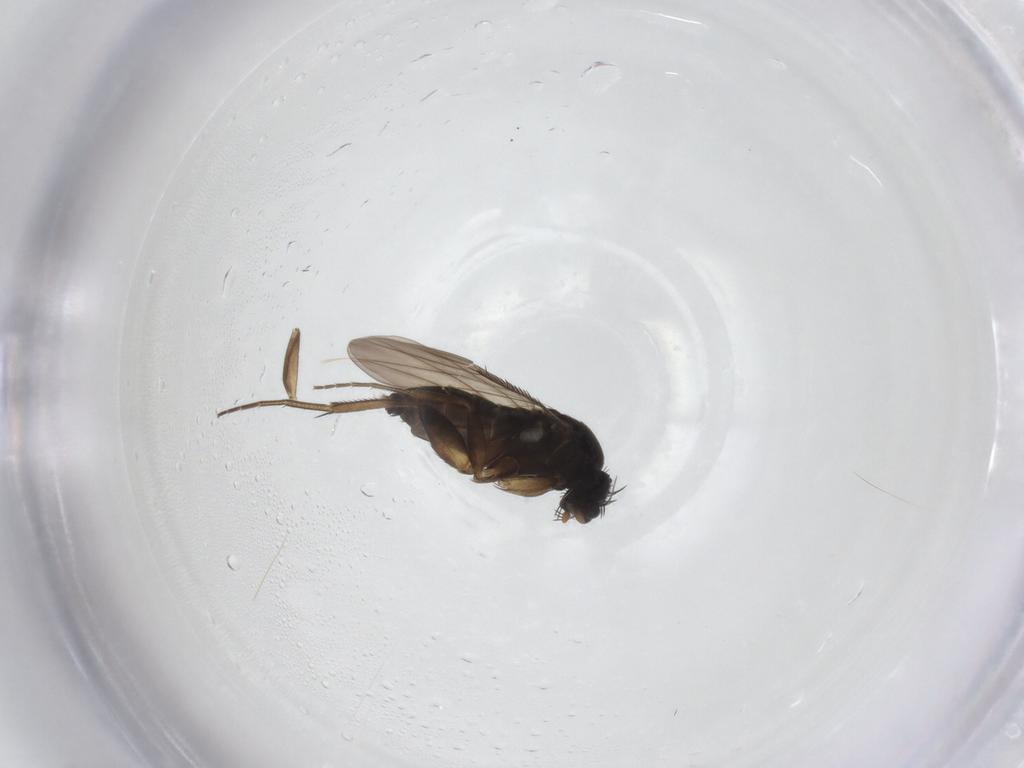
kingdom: Animalia
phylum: Arthropoda
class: Insecta
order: Diptera
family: Phoridae
